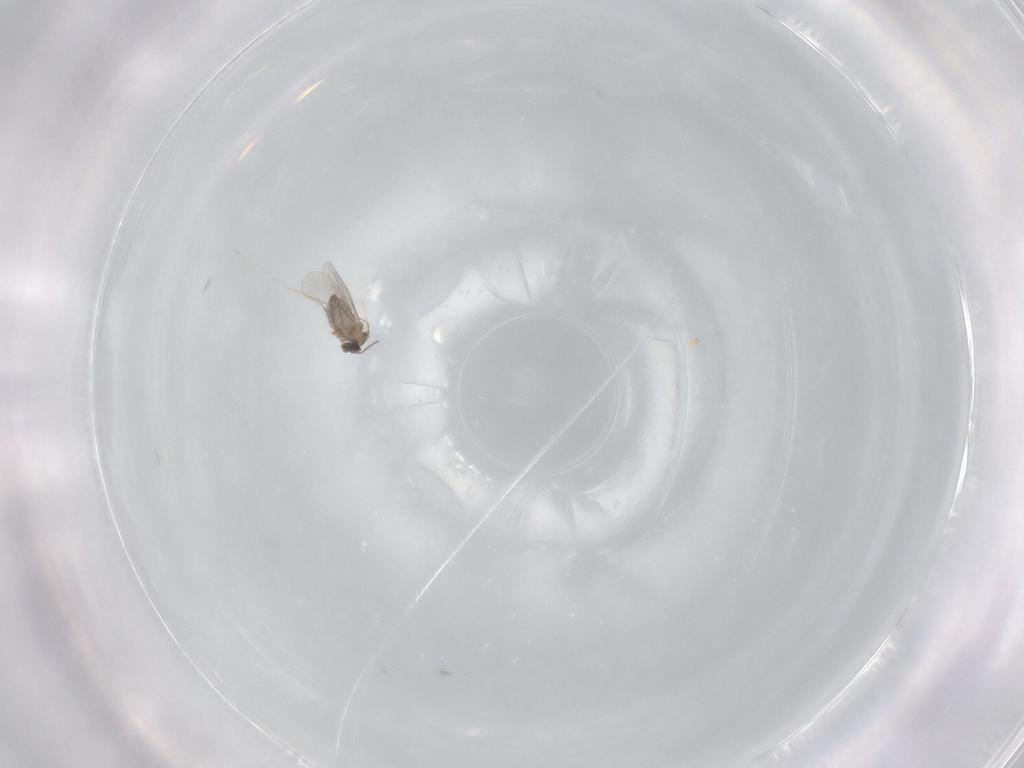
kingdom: Animalia
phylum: Arthropoda
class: Insecta
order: Diptera
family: Cecidomyiidae
